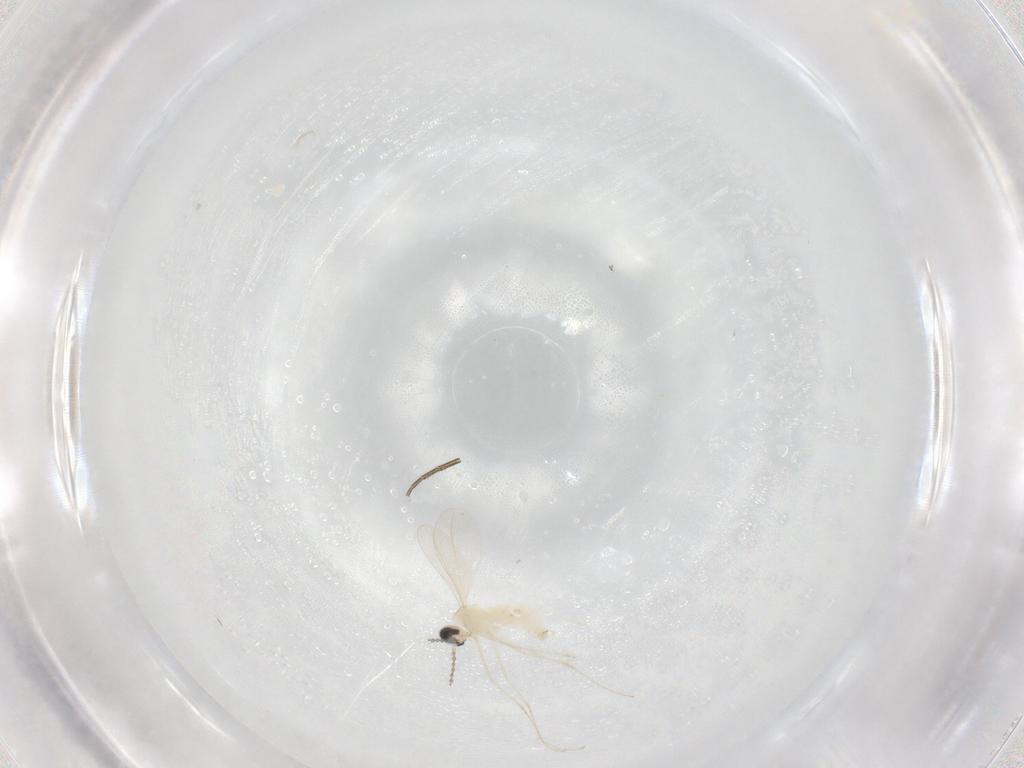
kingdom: Animalia
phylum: Arthropoda
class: Insecta
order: Diptera
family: Cecidomyiidae
